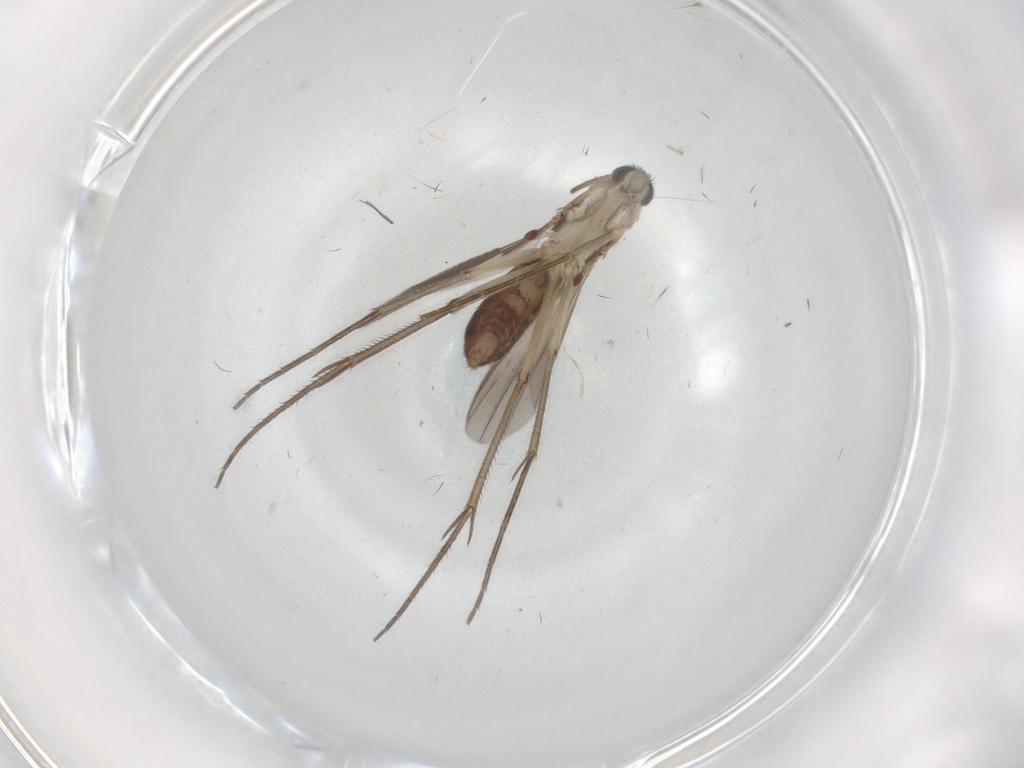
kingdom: Animalia
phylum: Arthropoda
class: Insecta
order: Diptera
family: Mycetophilidae
